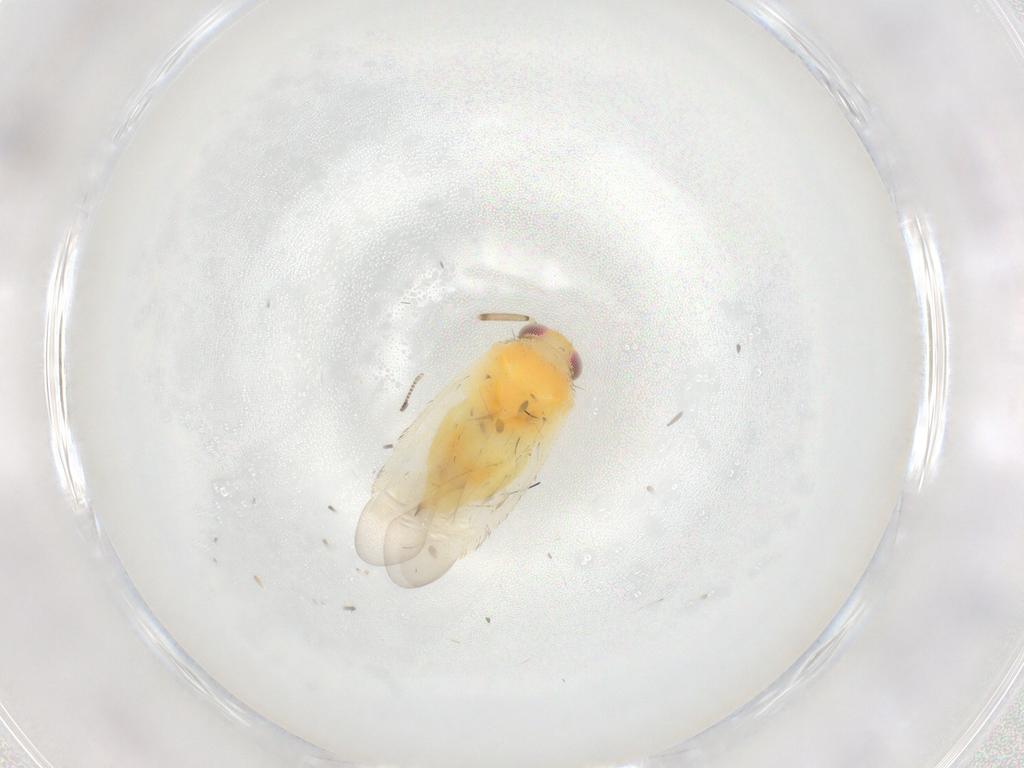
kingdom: Animalia
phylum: Arthropoda
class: Insecta
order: Hemiptera
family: Miridae
